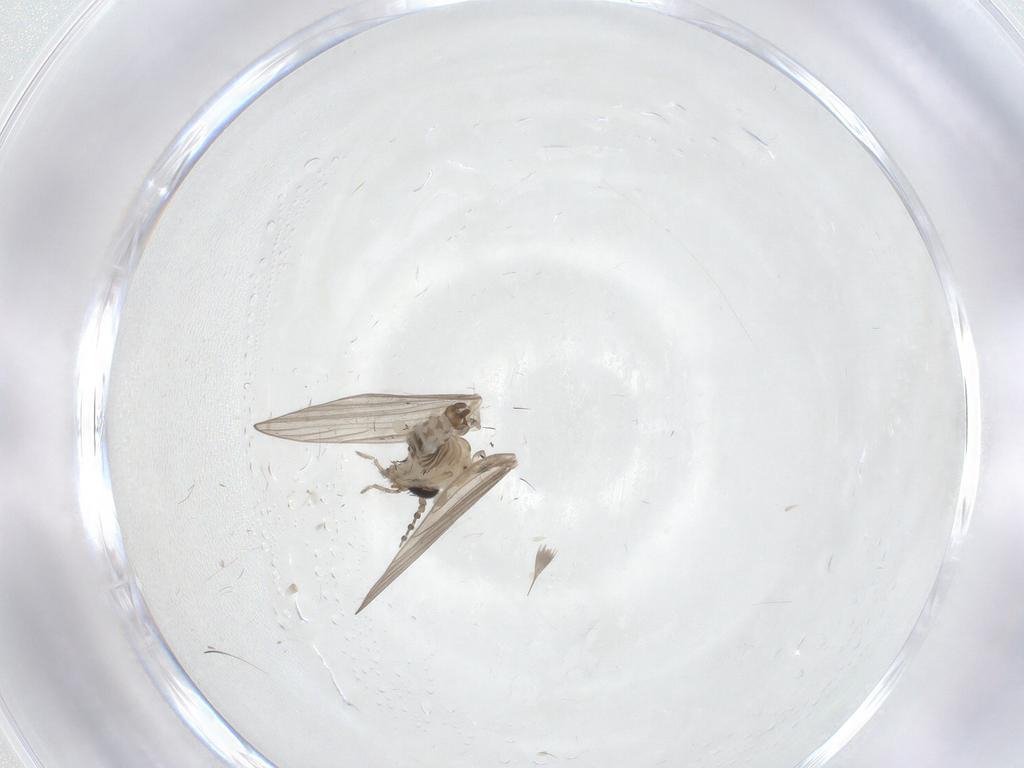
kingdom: Animalia
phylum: Arthropoda
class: Insecta
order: Diptera
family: Psychodidae
